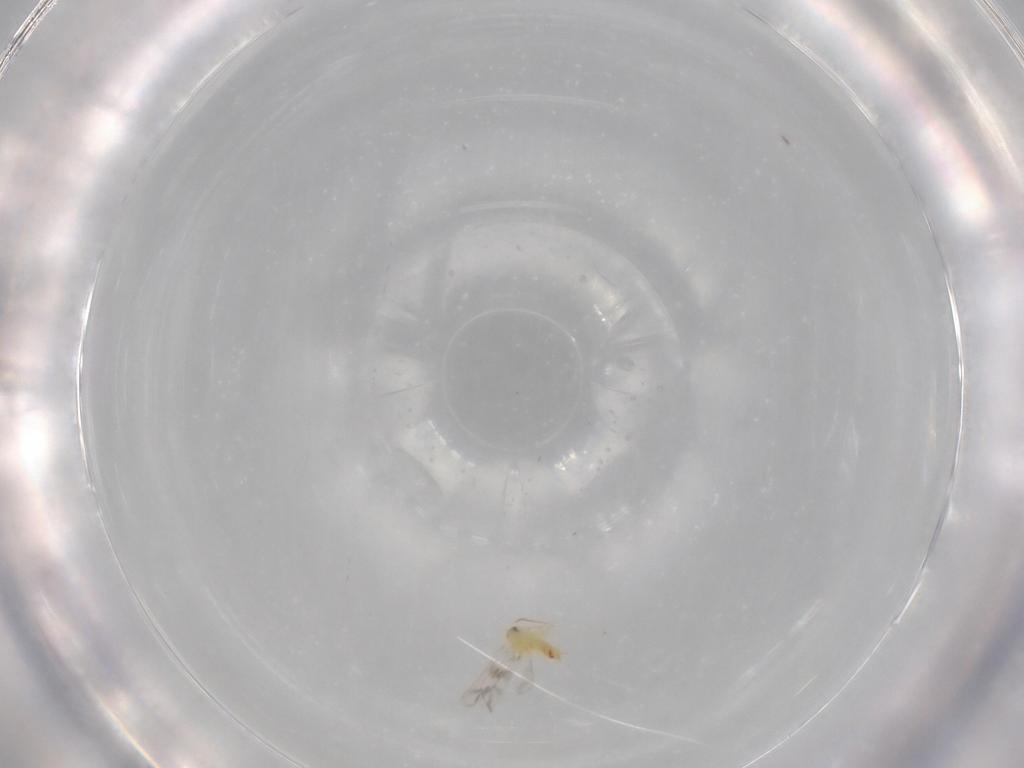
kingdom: Animalia
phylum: Arthropoda
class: Insecta
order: Hemiptera
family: Aleyrodidae
